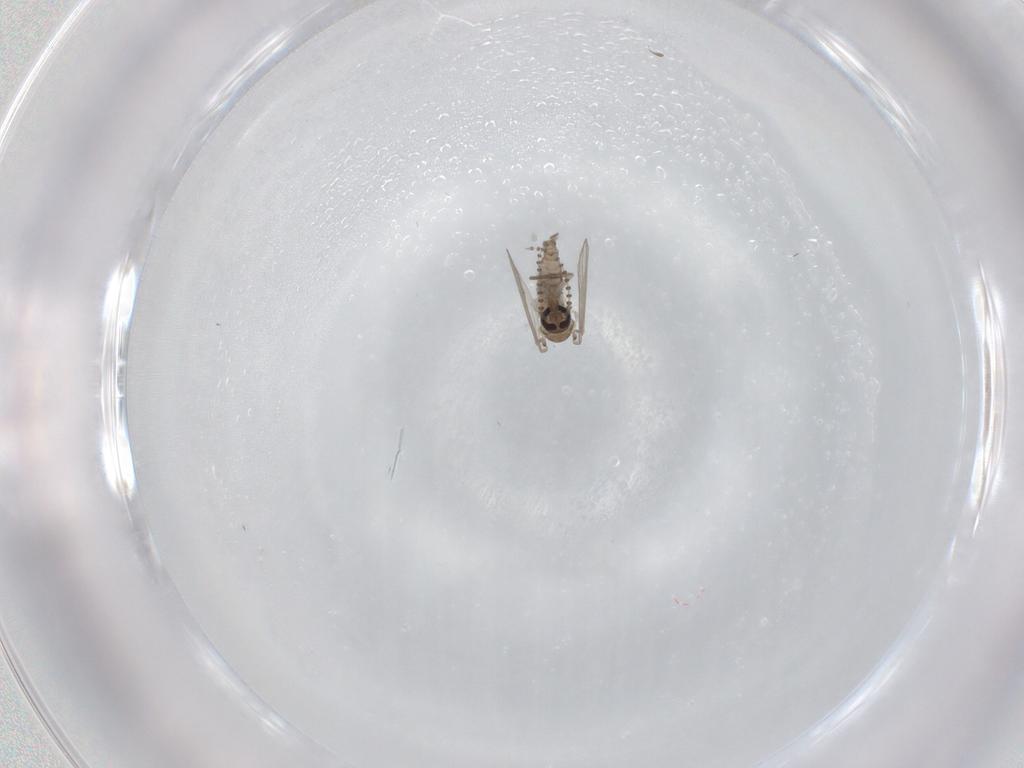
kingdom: Animalia
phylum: Arthropoda
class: Insecta
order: Diptera
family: Psychodidae
